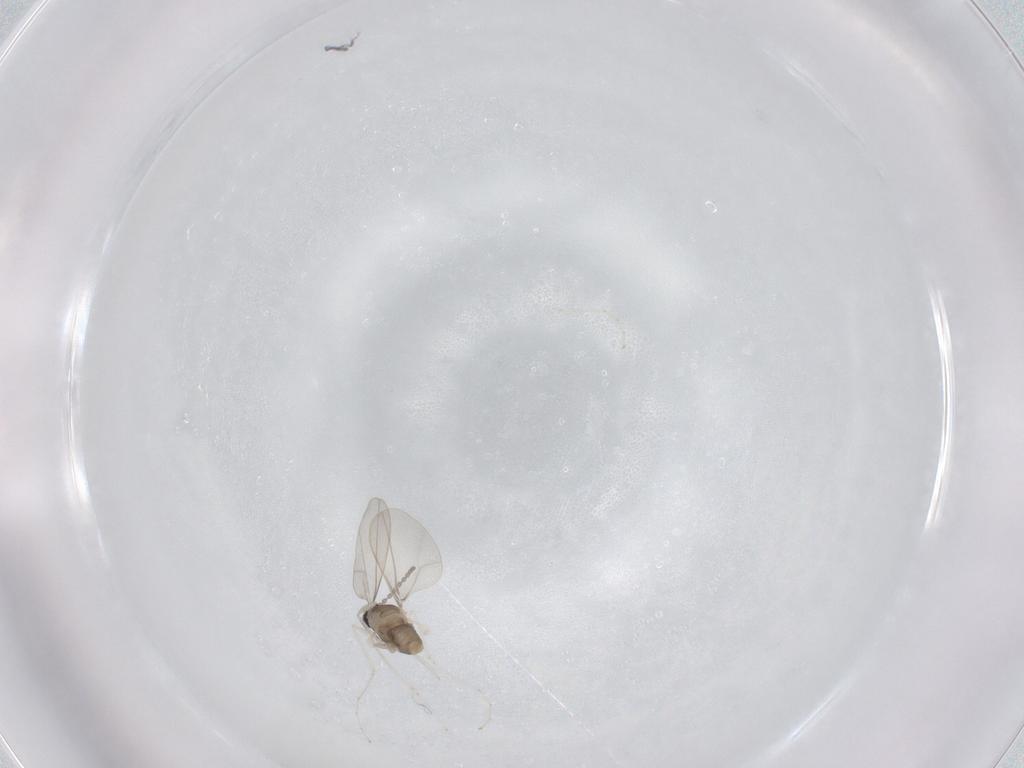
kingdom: Animalia
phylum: Arthropoda
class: Insecta
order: Diptera
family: Cecidomyiidae
